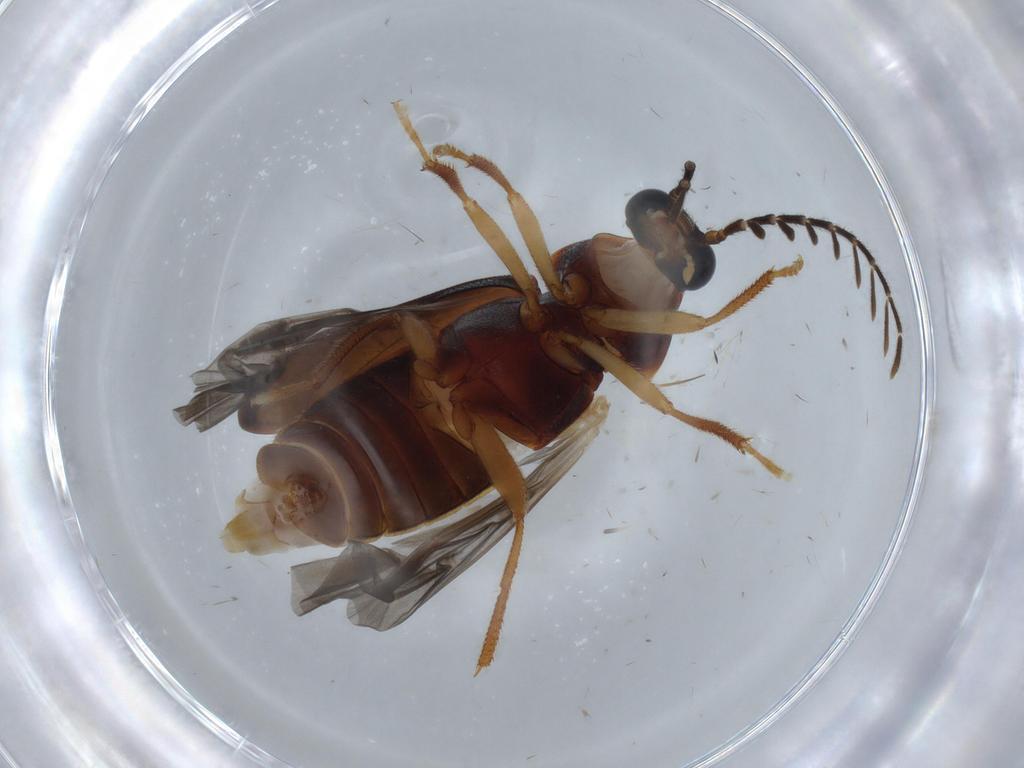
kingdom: Animalia
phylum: Arthropoda
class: Insecta
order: Coleoptera
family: Ptilodactylidae
